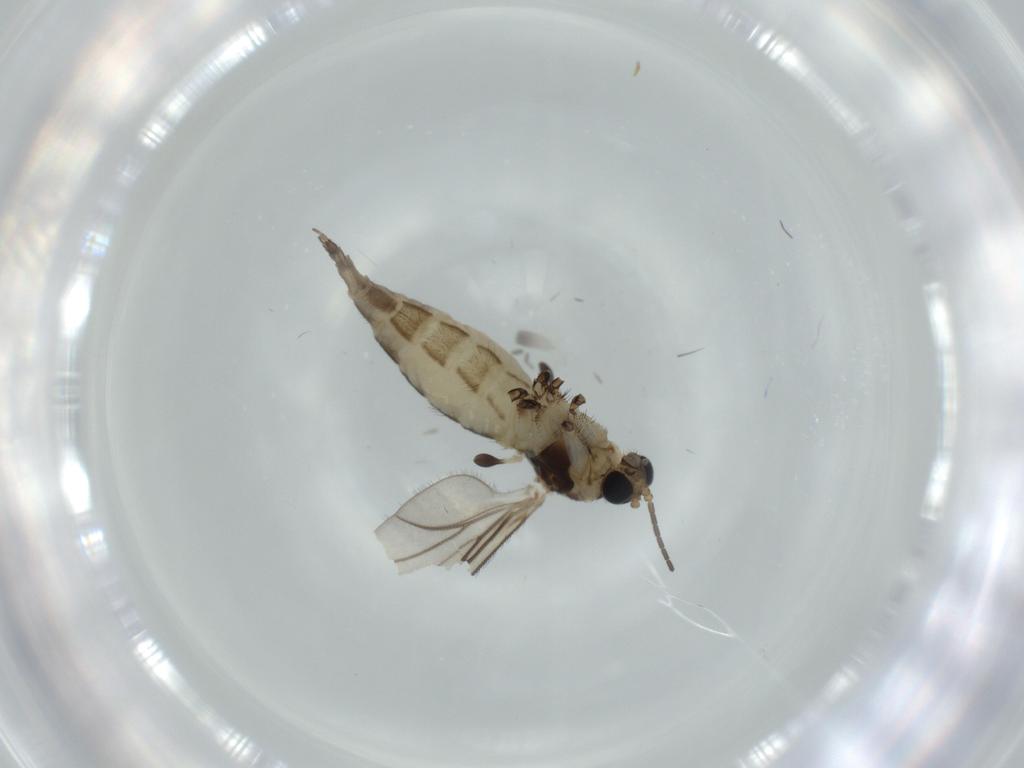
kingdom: Animalia
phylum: Arthropoda
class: Insecta
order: Diptera
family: Sciaridae
